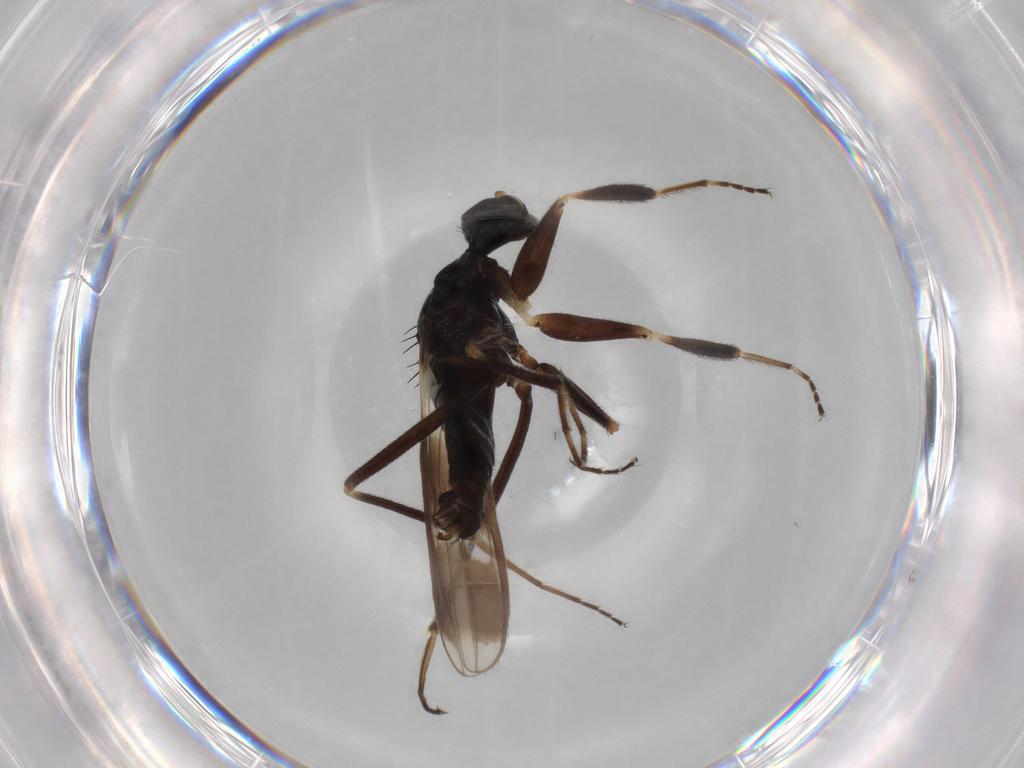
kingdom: Animalia
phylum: Arthropoda
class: Insecta
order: Diptera
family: Hybotidae
